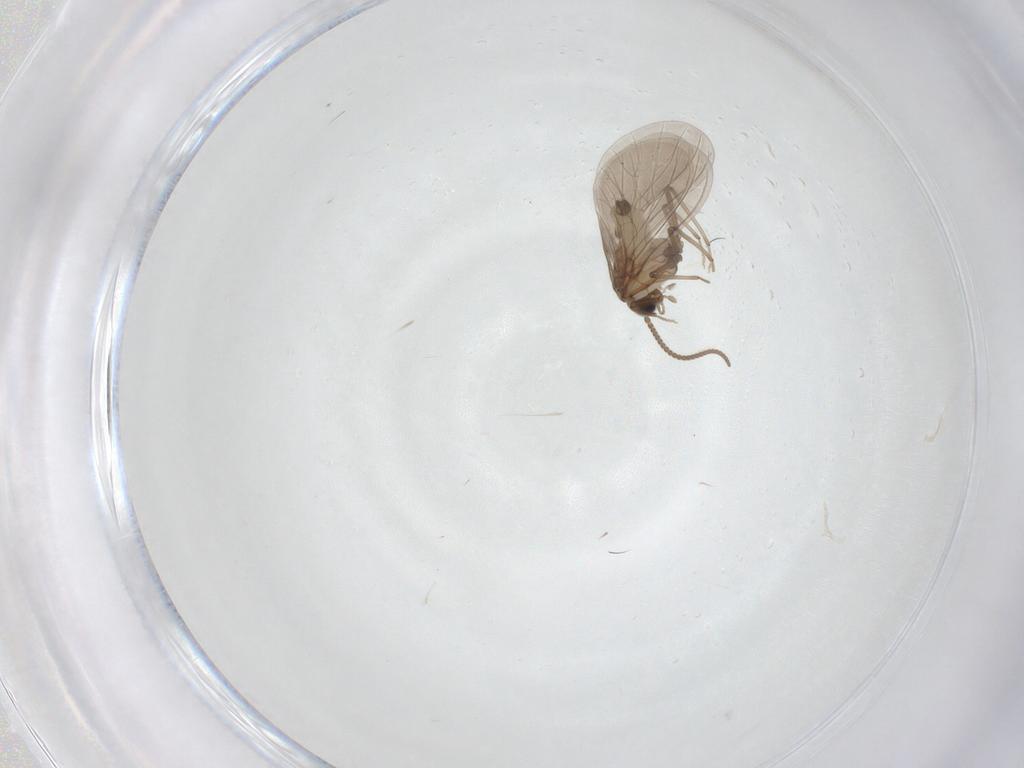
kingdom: Animalia
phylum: Arthropoda
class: Insecta
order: Neuroptera
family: Coniopterygidae
